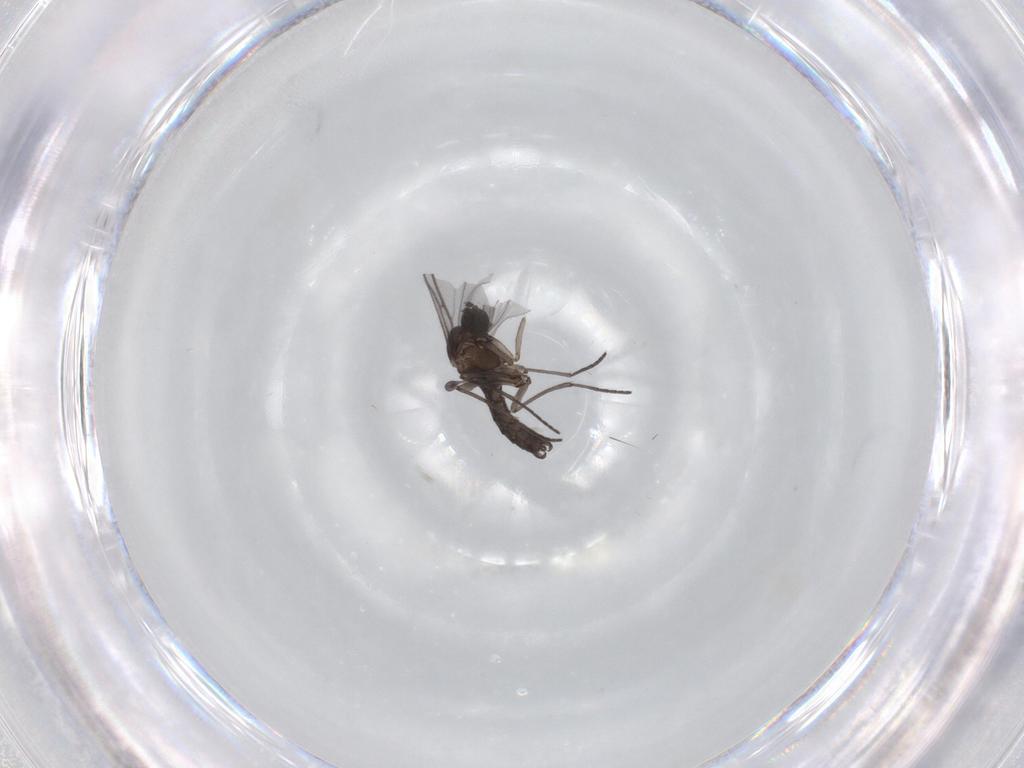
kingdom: Animalia
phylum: Arthropoda
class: Insecta
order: Diptera
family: Sciaridae
